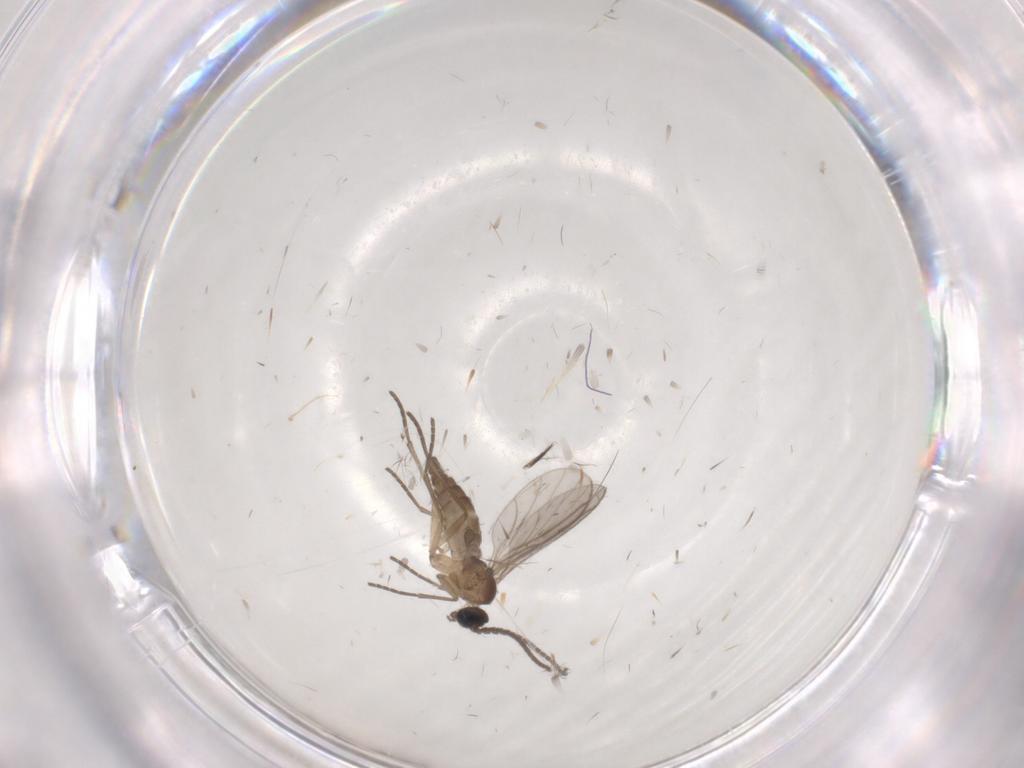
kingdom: Animalia
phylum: Arthropoda
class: Insecta
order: Diptera
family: Sciaridae
